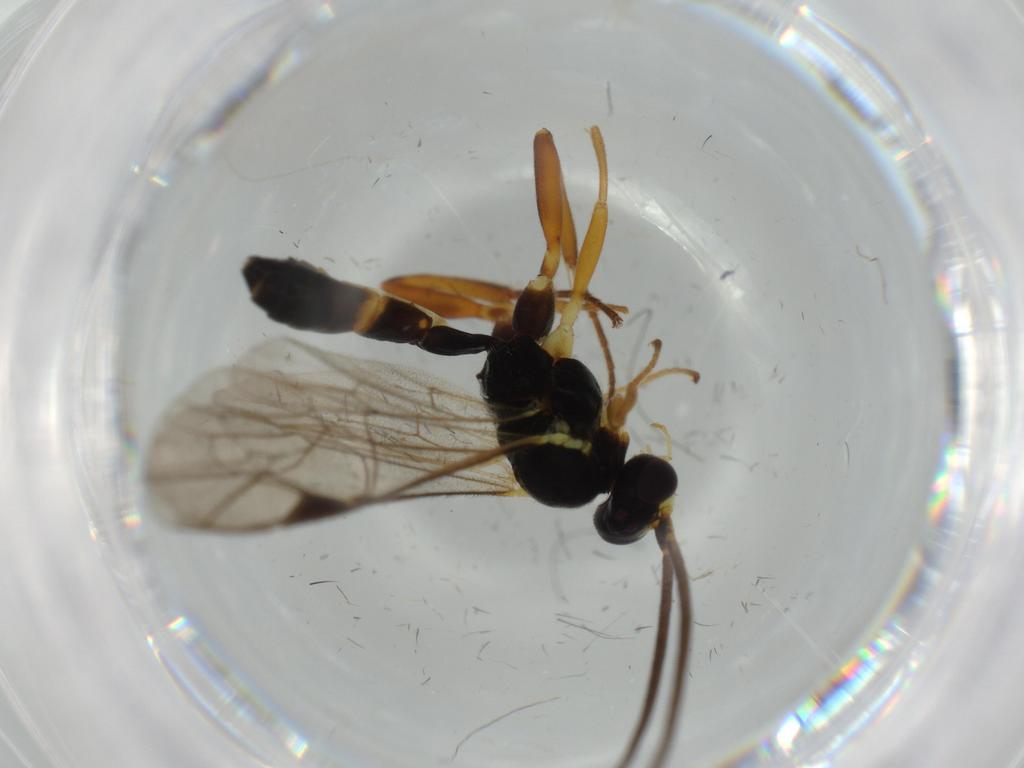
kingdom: Animalia
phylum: Arthropoda
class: Insecta
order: Hymenoptera
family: Ichneumonidae
